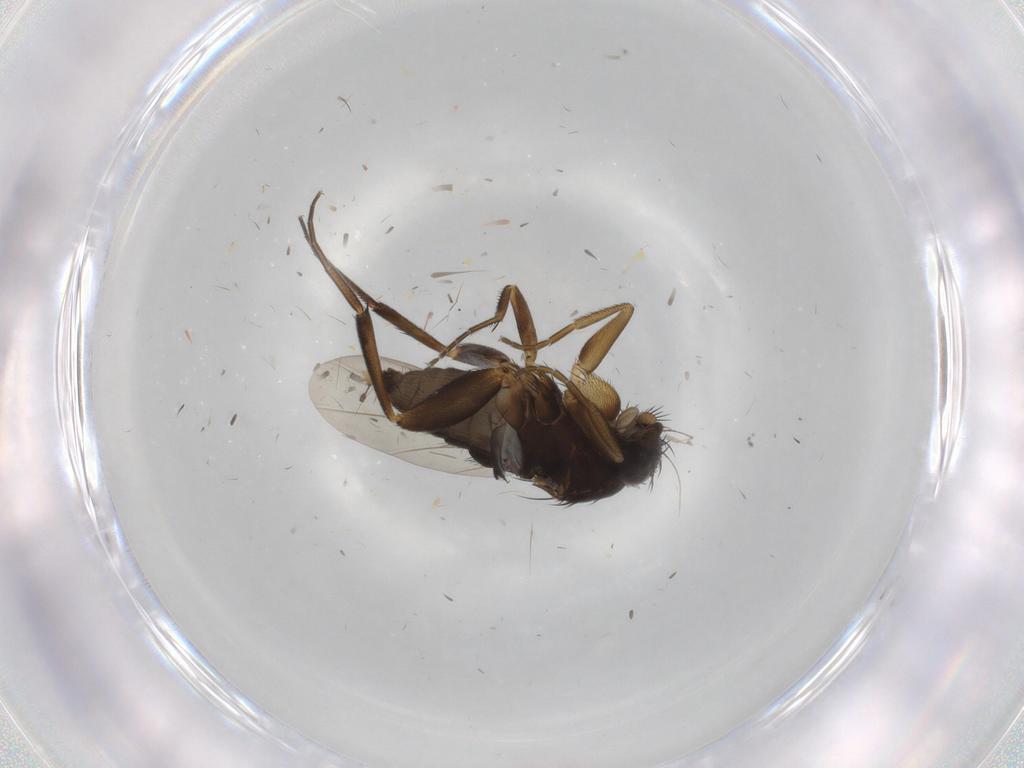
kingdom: Animalia
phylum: Arthropoda
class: Insecta
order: Diptera
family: Phoridae
